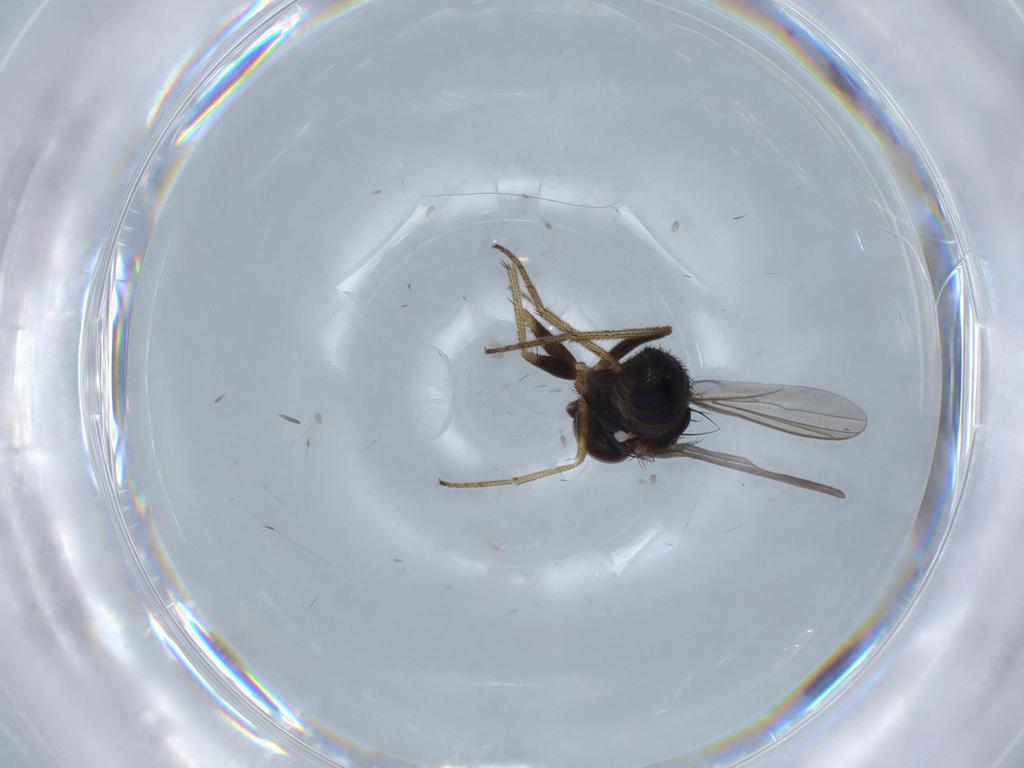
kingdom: Animalia
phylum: Arthropoda
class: Insecta
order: Diptera
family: Dolichopodidae
